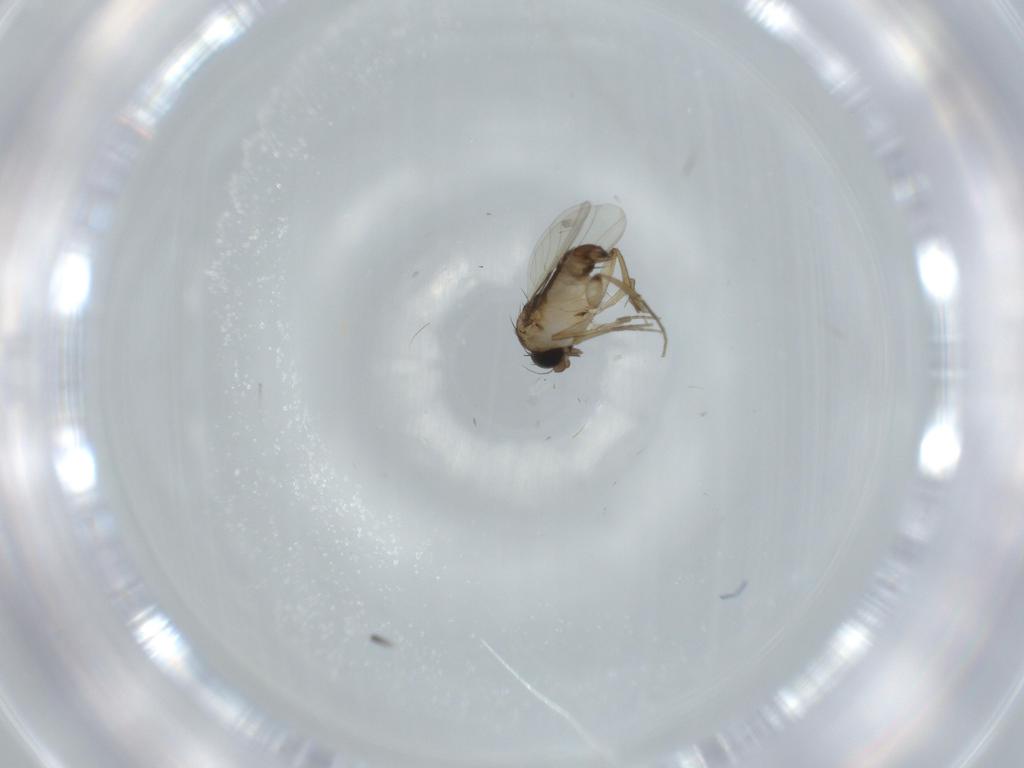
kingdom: Animalia
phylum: Arthropoda
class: Insecta
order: Diptera
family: Phoridae
